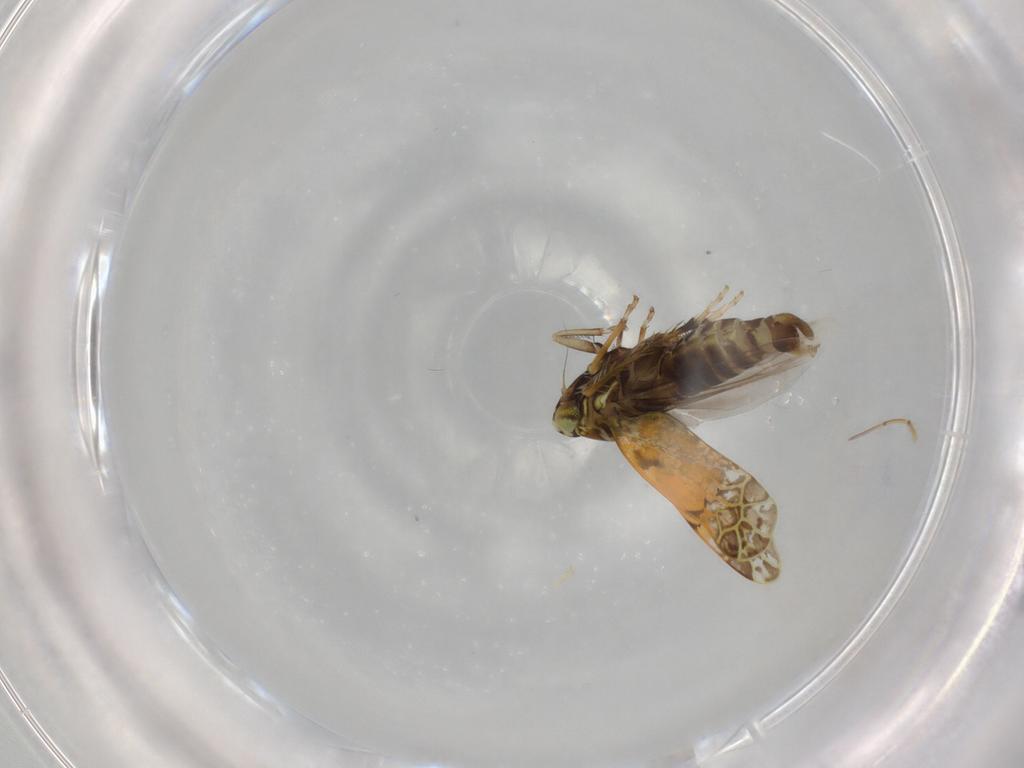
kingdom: Animalia
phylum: Arthropoda
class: Insecta
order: Hemiptera
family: Cicadellidae
